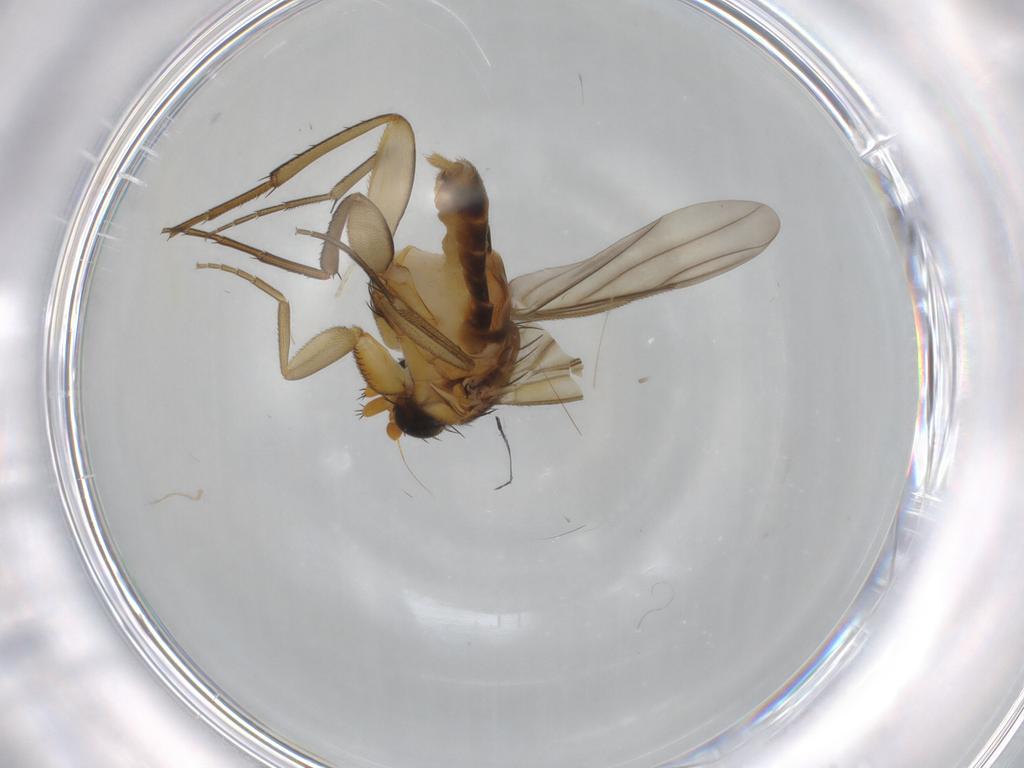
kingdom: Animalia
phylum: Arthropoda
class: Insecta
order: Diptera
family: Phoridae
